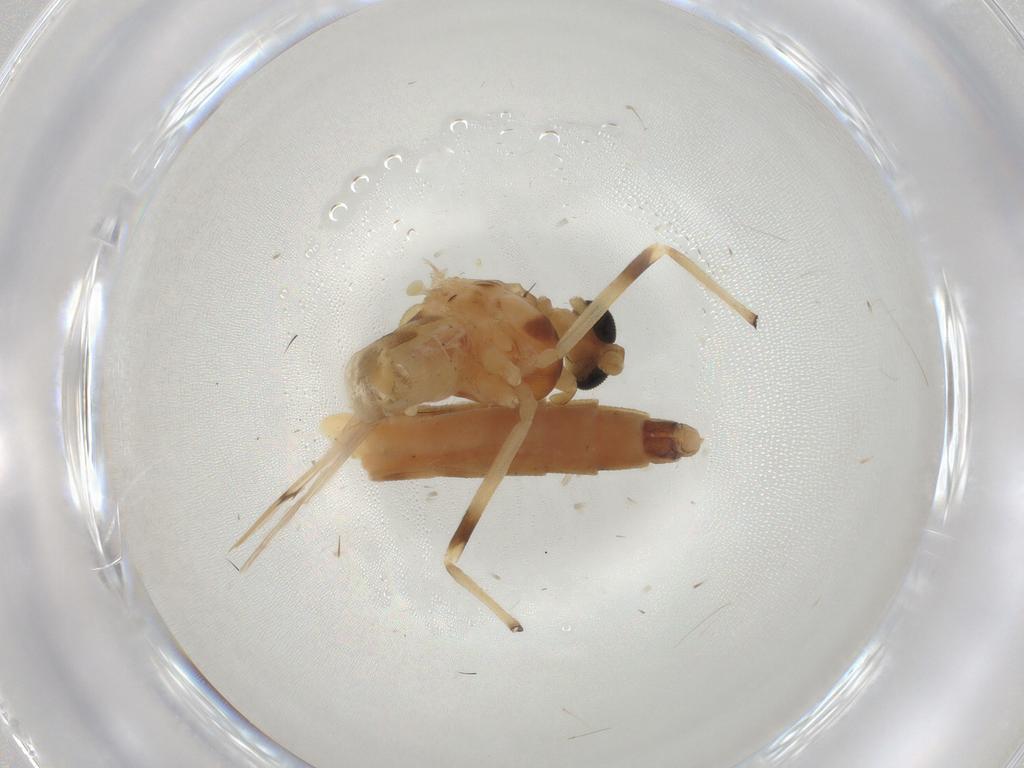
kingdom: Animalia
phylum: Arthropoda
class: Insecta
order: Diptera
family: Chironomidae
